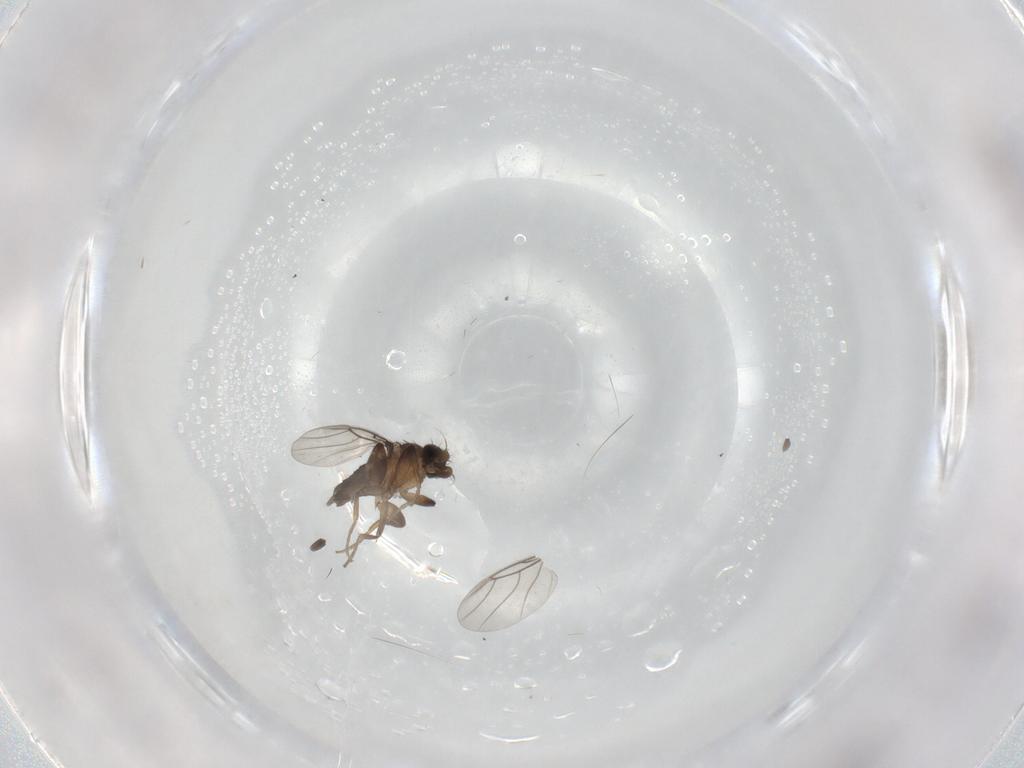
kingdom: Animalia
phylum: Arthropoda
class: Insecta
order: Diptera
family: Phoridae
